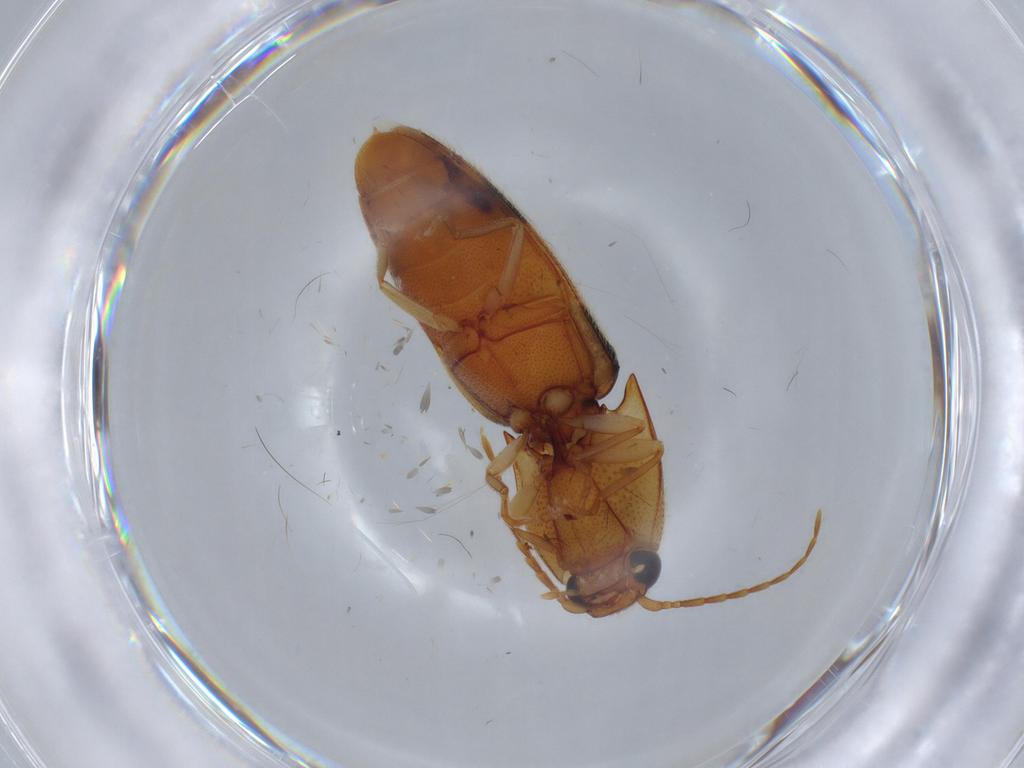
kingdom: Animalia
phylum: Arthropoda
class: Insecta
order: Coleoptera
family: Elateridae
